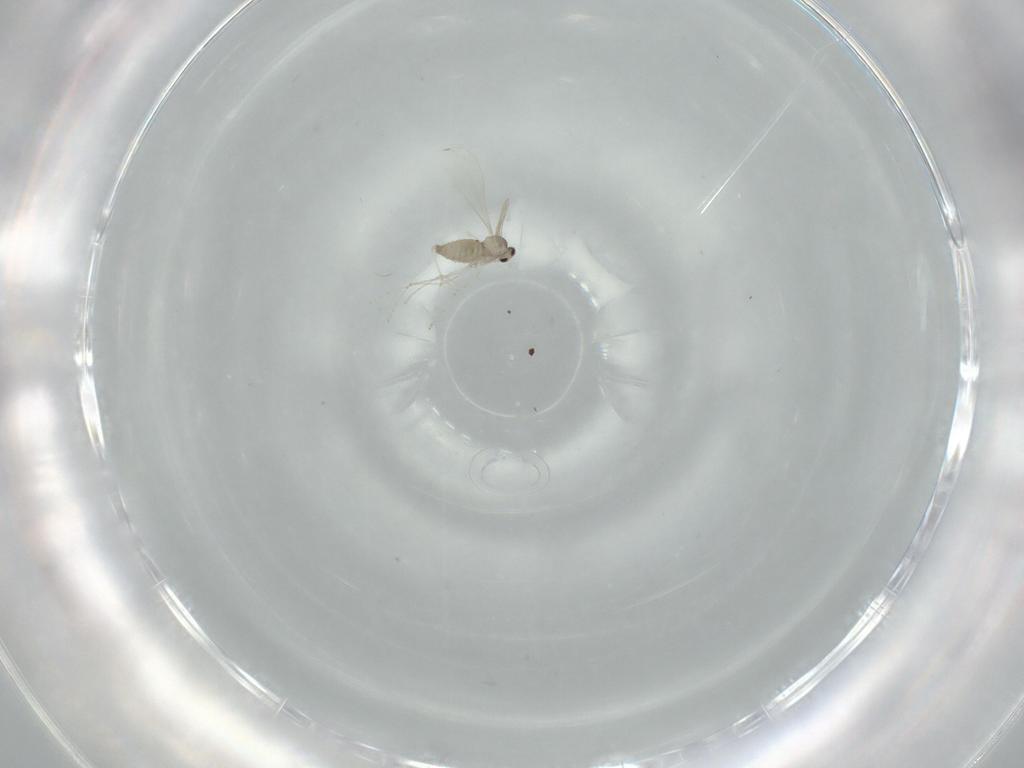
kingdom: Animalia
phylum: Arthropoda
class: Insecta
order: Diptera
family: Cecidomyiidae
